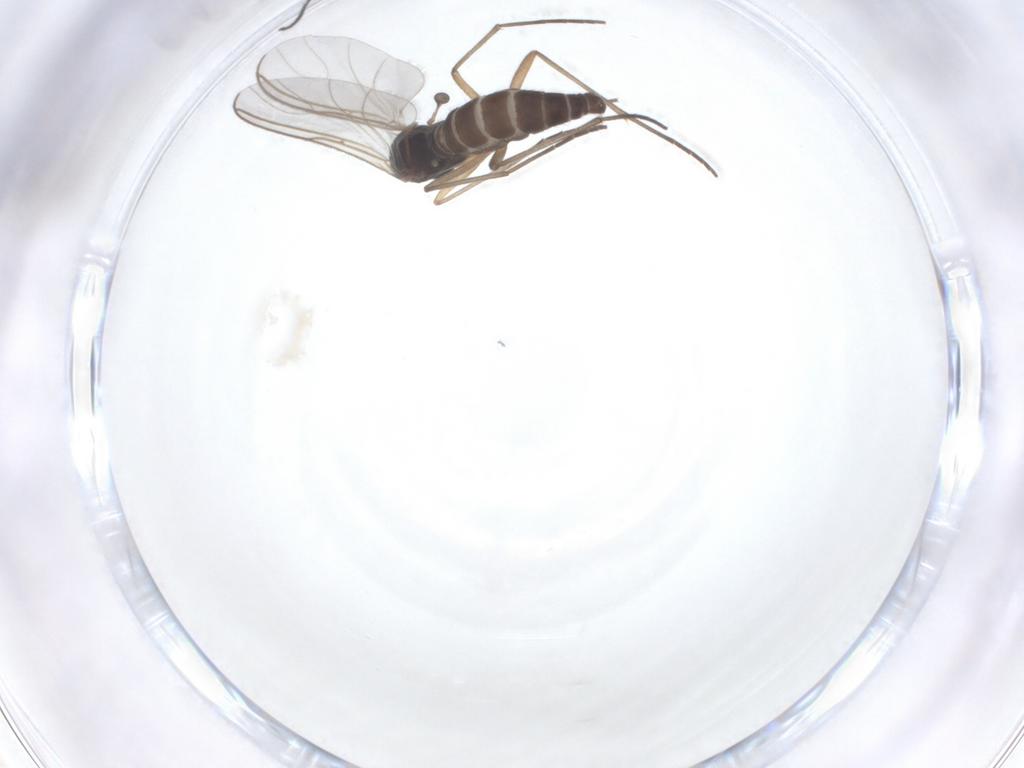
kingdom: Animalia
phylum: Arthropoda
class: Insecta
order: Diptera
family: Sciaridae
